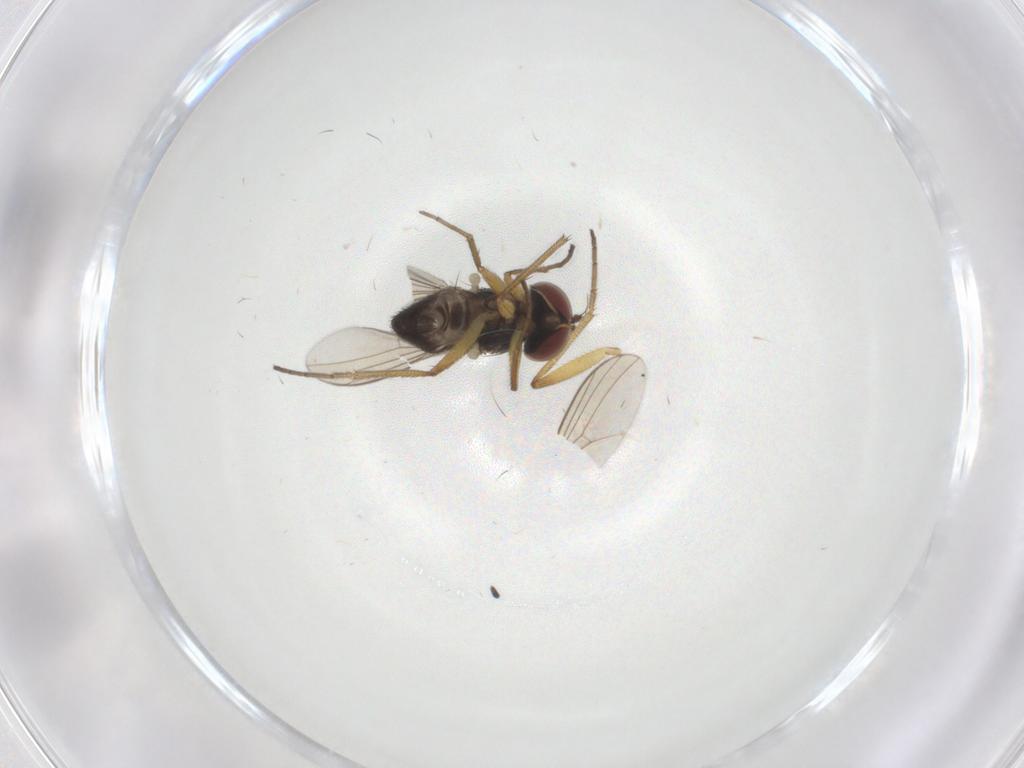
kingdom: Animalia
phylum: Arthropoda
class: Insecta
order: Diptera
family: Dolichopodidae
